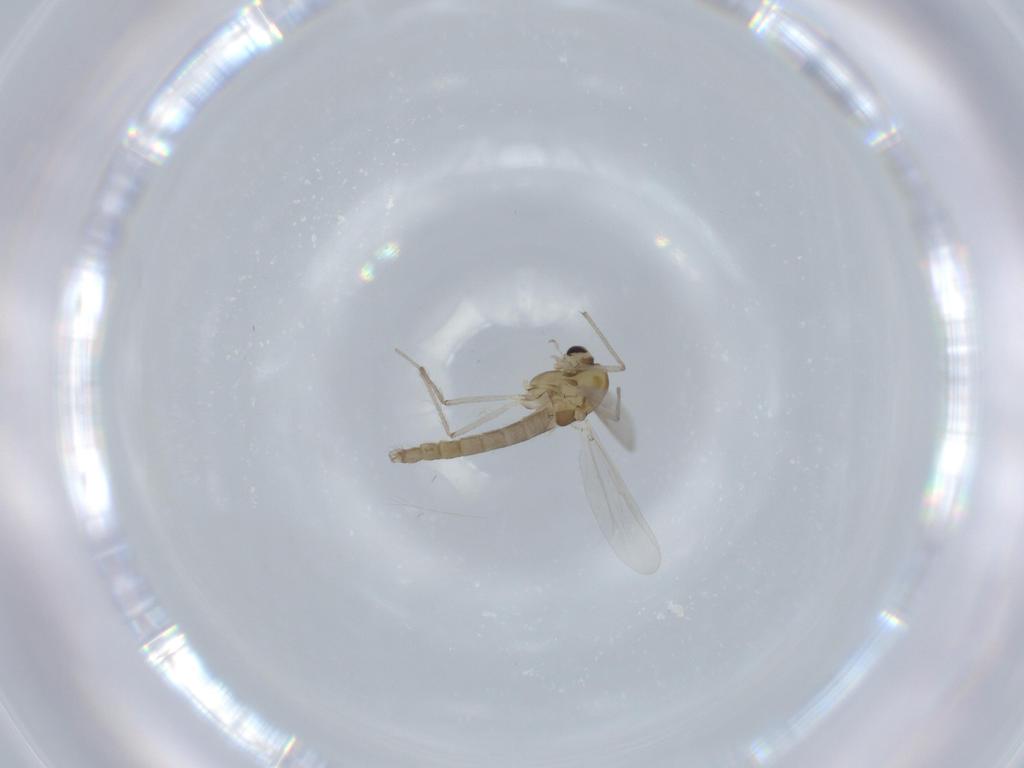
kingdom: Animalia
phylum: Arthropoda
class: Insecta
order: Diptera
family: Chironomidae
